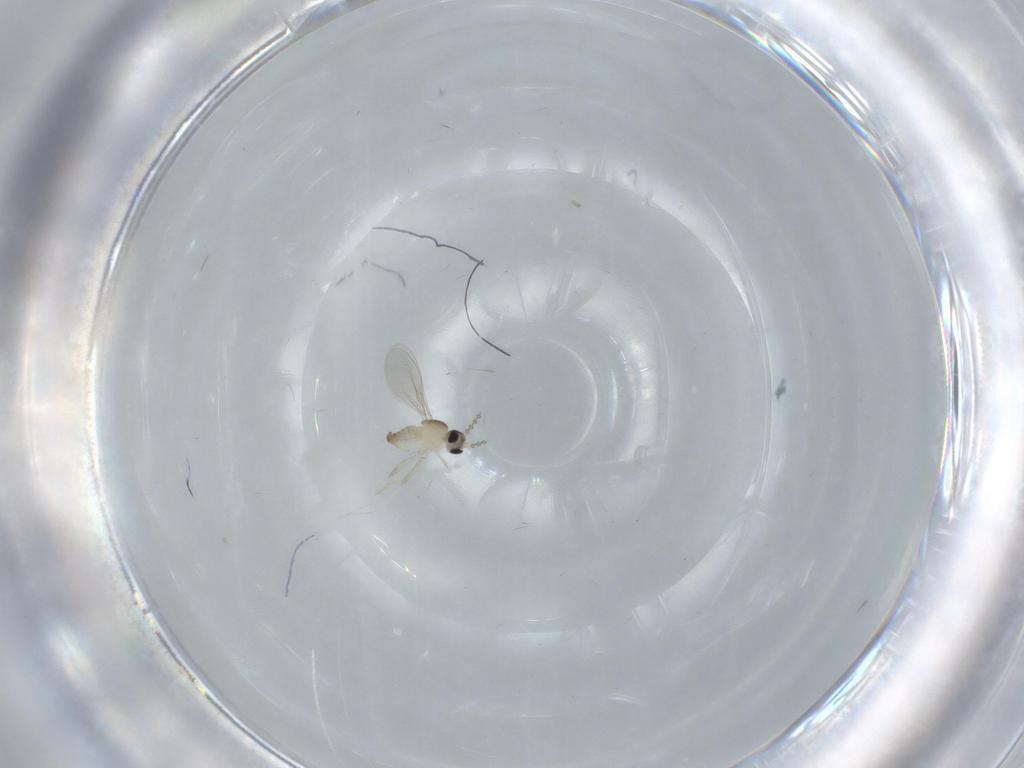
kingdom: Animalia
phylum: Arthropoda
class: Insecta
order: Diptera
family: Cecidomyiidae
